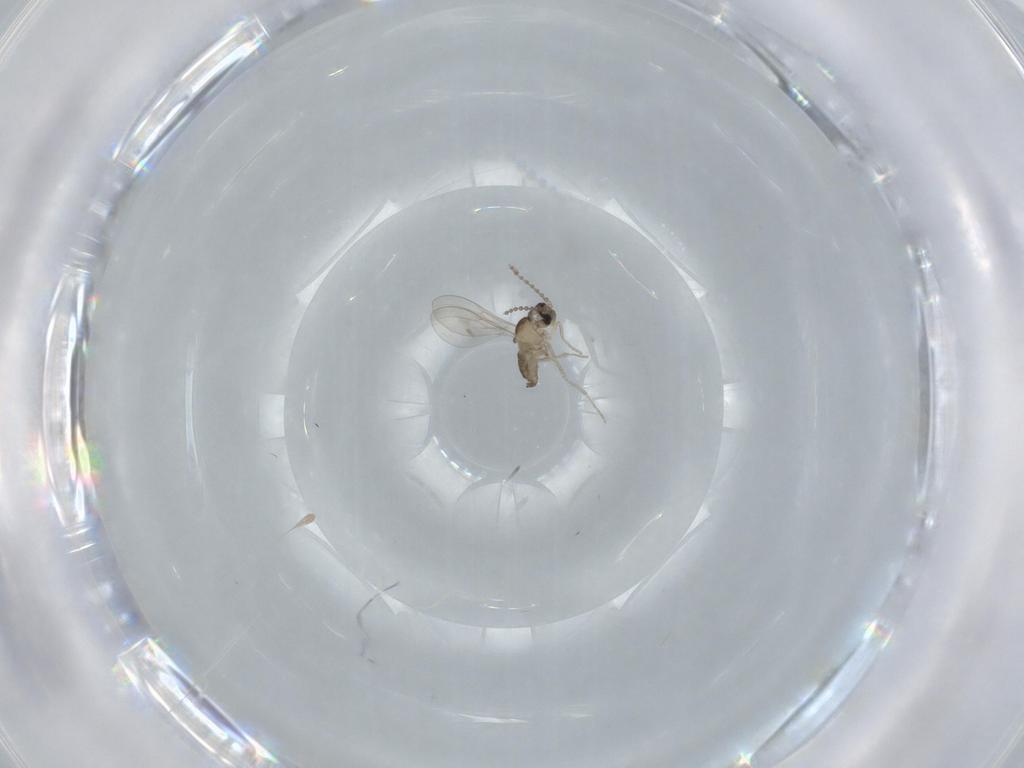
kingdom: Animalia
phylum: Arthropoda
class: Insecta
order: Diptera
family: Cecidomyiidae
